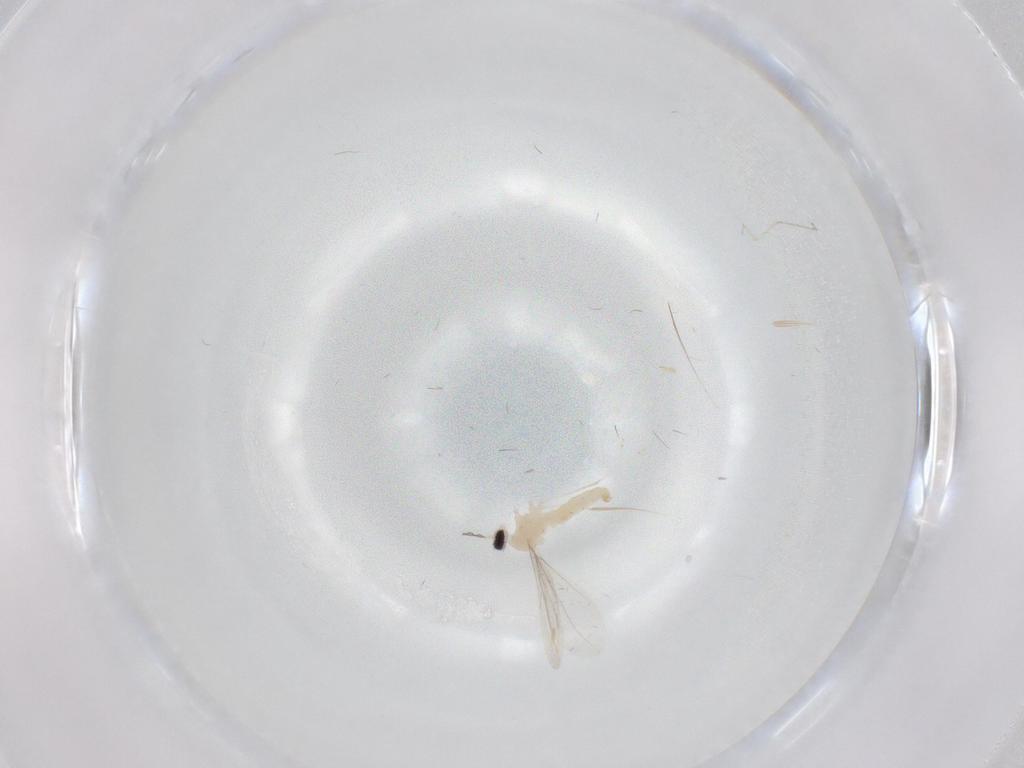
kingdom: Animalia
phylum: Arthropoda
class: Insecta
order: Diptera
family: Cecidomyiidae
